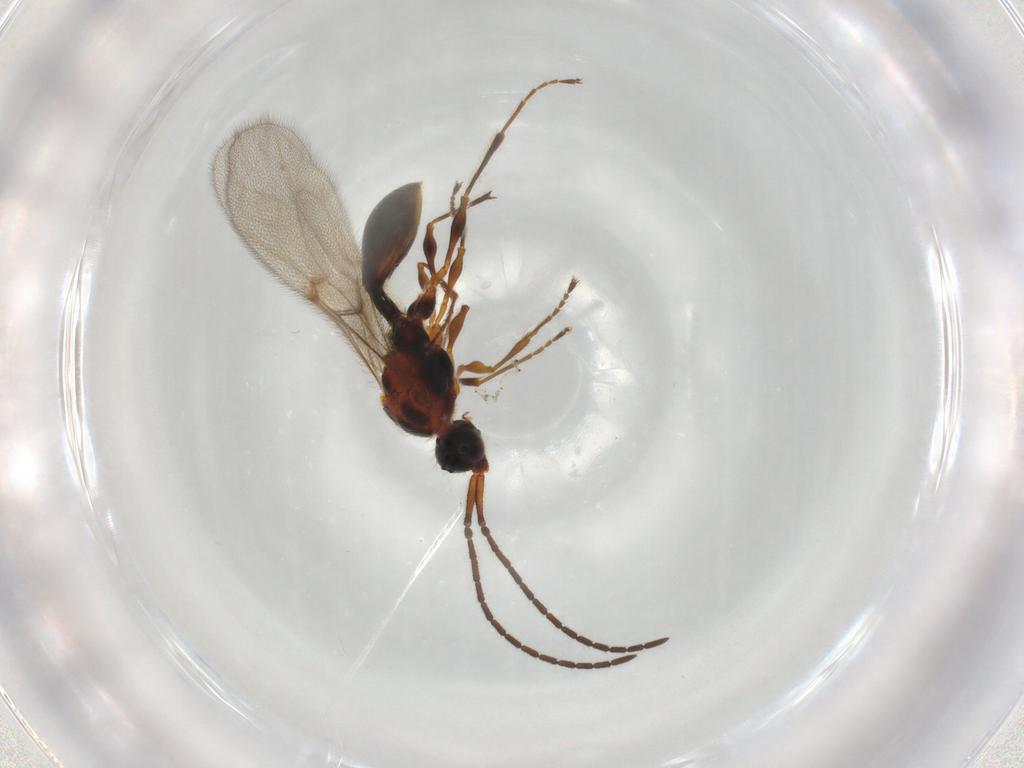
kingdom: Animalia
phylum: Arthropoda
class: Insecta
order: Hymenoptera
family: Diapriidae
